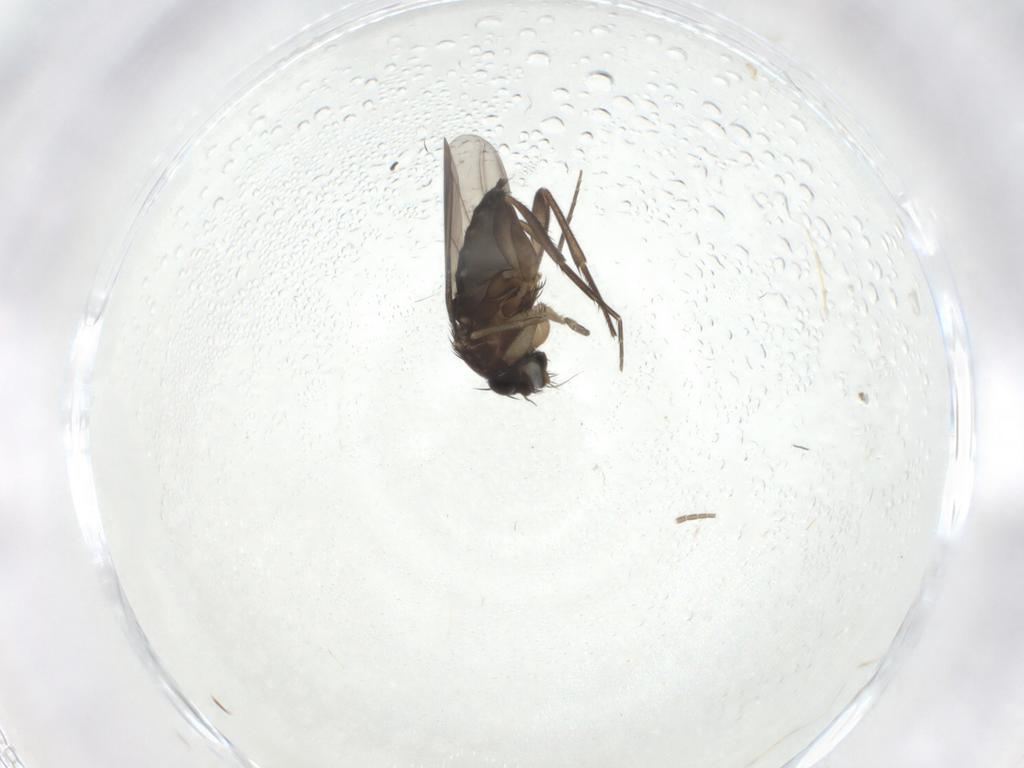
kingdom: Animalia
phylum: Arthropoda
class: Insecta
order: Diptera
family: Phoridae
